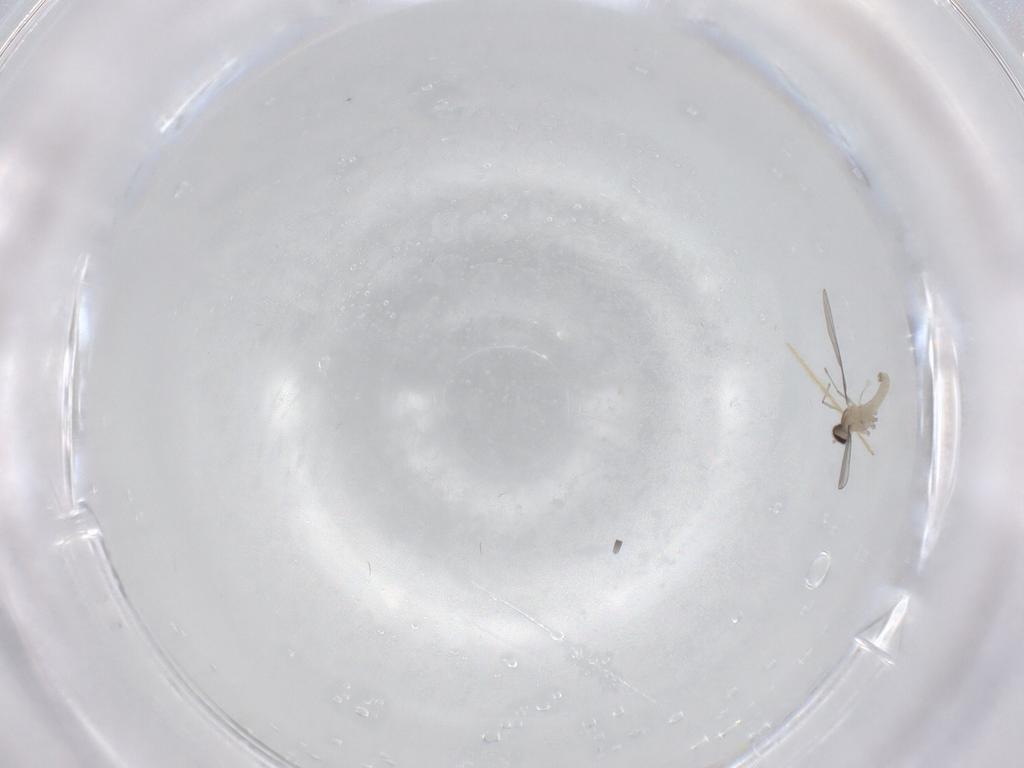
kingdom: Animalia
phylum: Arthropoda
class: Insecta
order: Diptera
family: Cecidomyiidae
